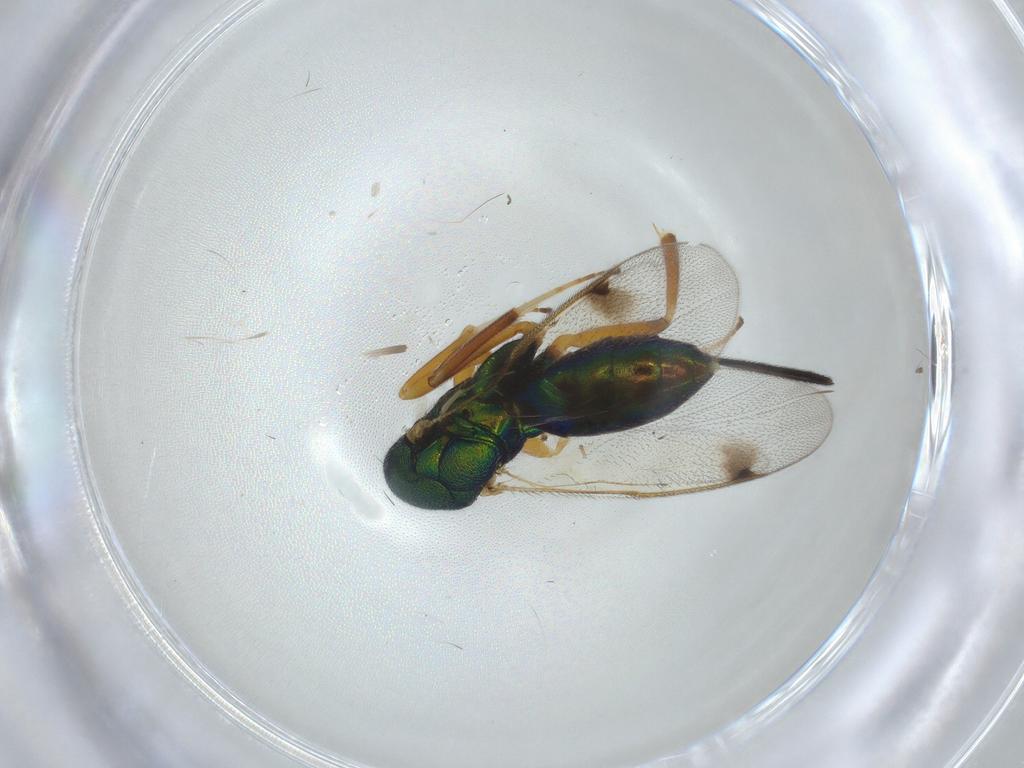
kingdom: Animalia
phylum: Arthropoda
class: Insecta
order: Hymenoptera
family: Torymidae
